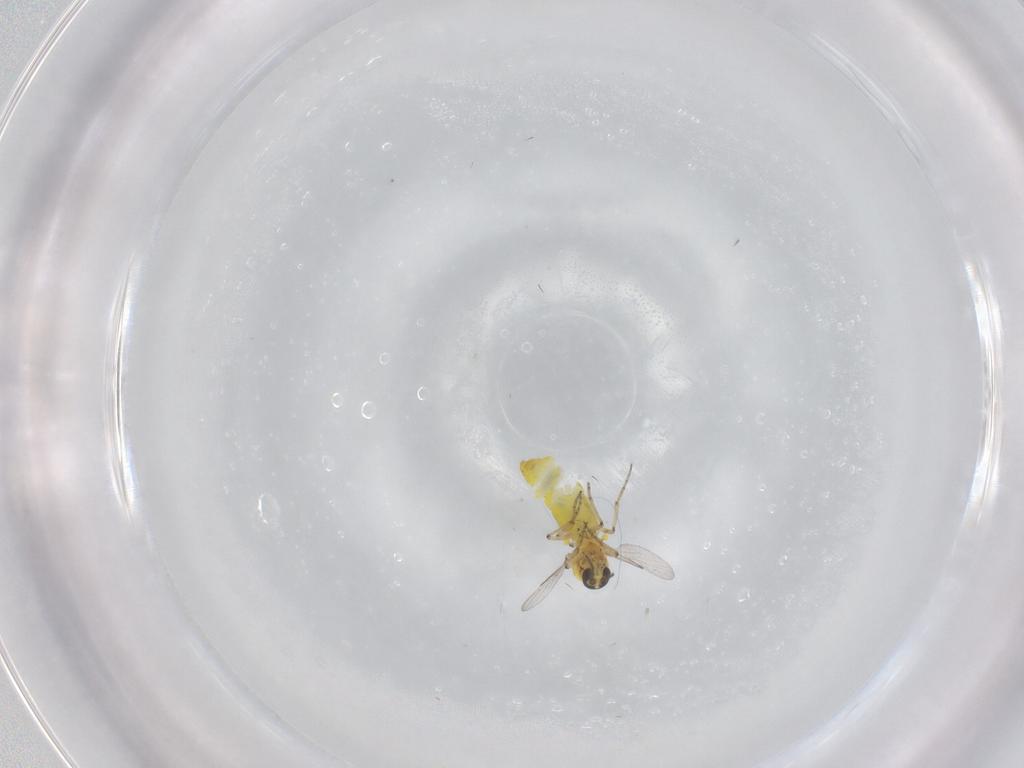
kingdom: Animalia
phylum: Arthropoda
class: Insecta
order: Diptera
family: Ceratopogonidae
